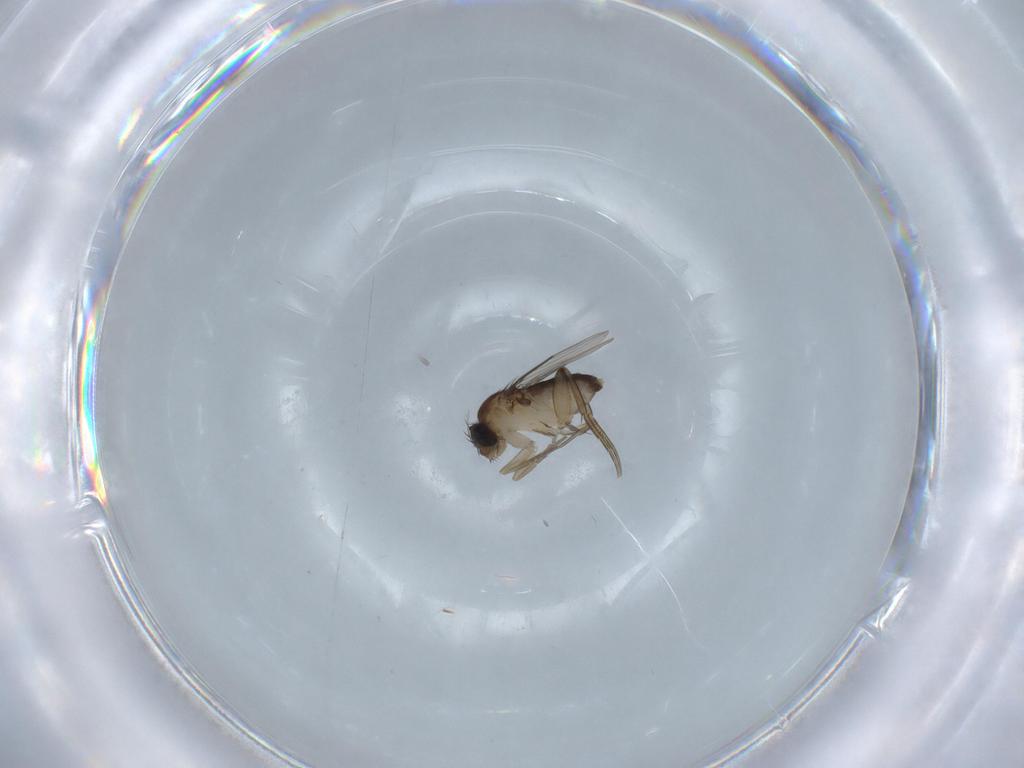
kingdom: Animalia
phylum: Arthropoda
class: Insecta
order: Diptera
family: Phoridae
